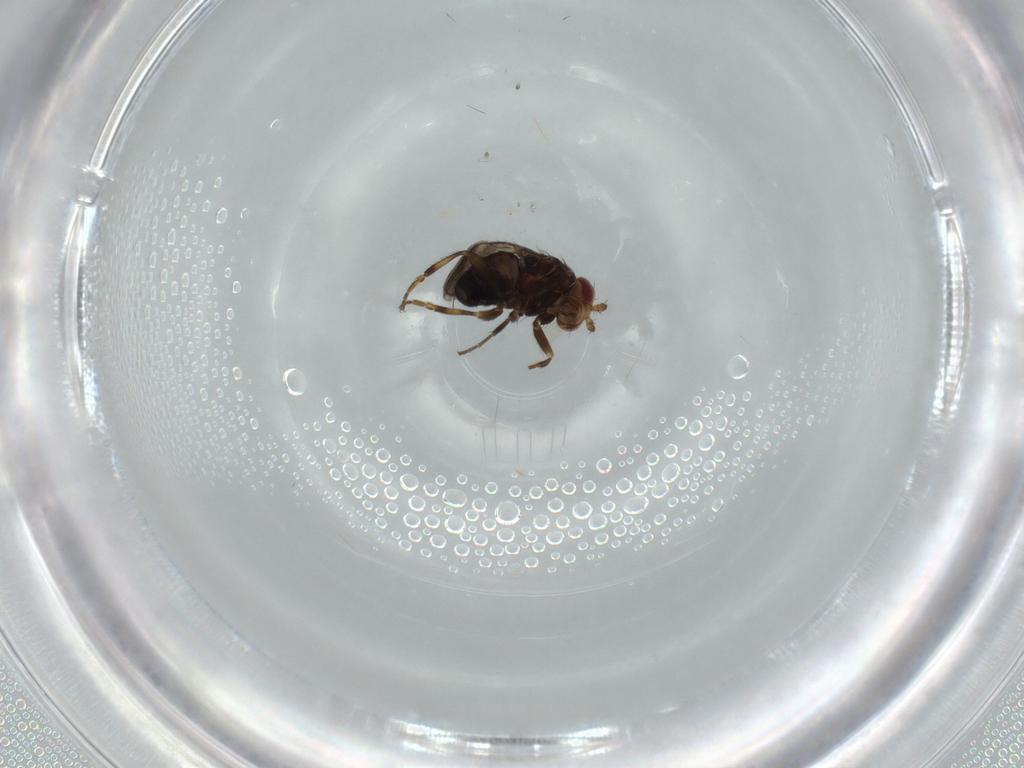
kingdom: Animalia
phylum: Arthropoda
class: Insecta
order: Diptera
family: Sphaeroceridae
